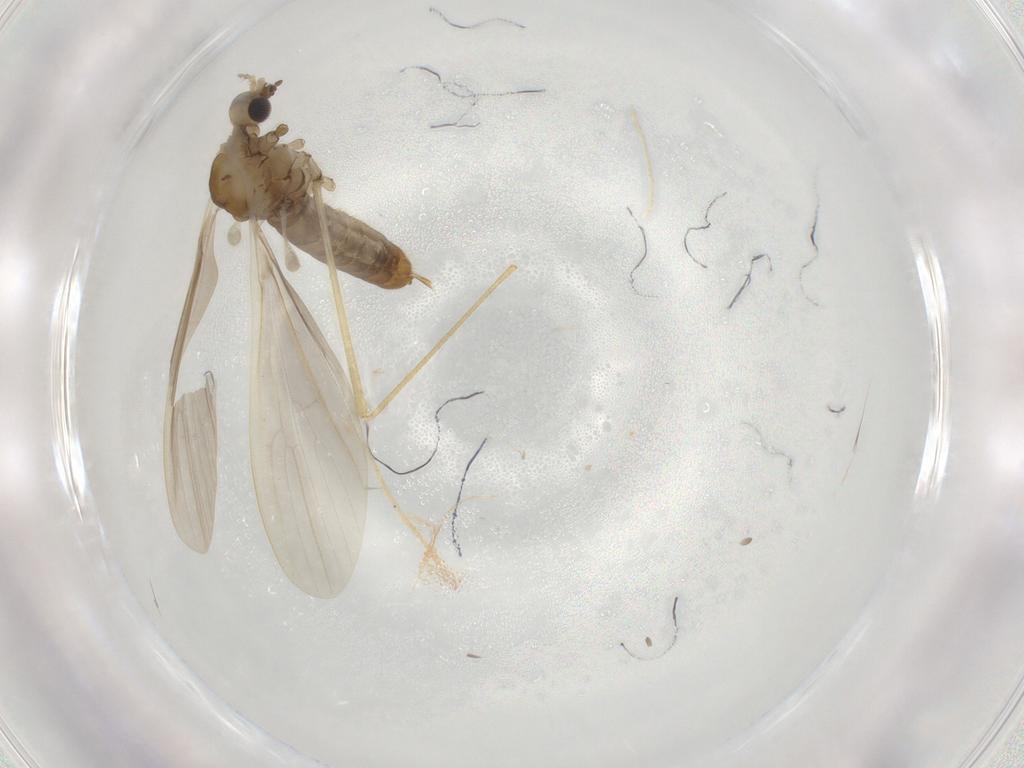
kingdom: Animalia
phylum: Arthropoda
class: Insecta
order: Diptera
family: Limoniidae
